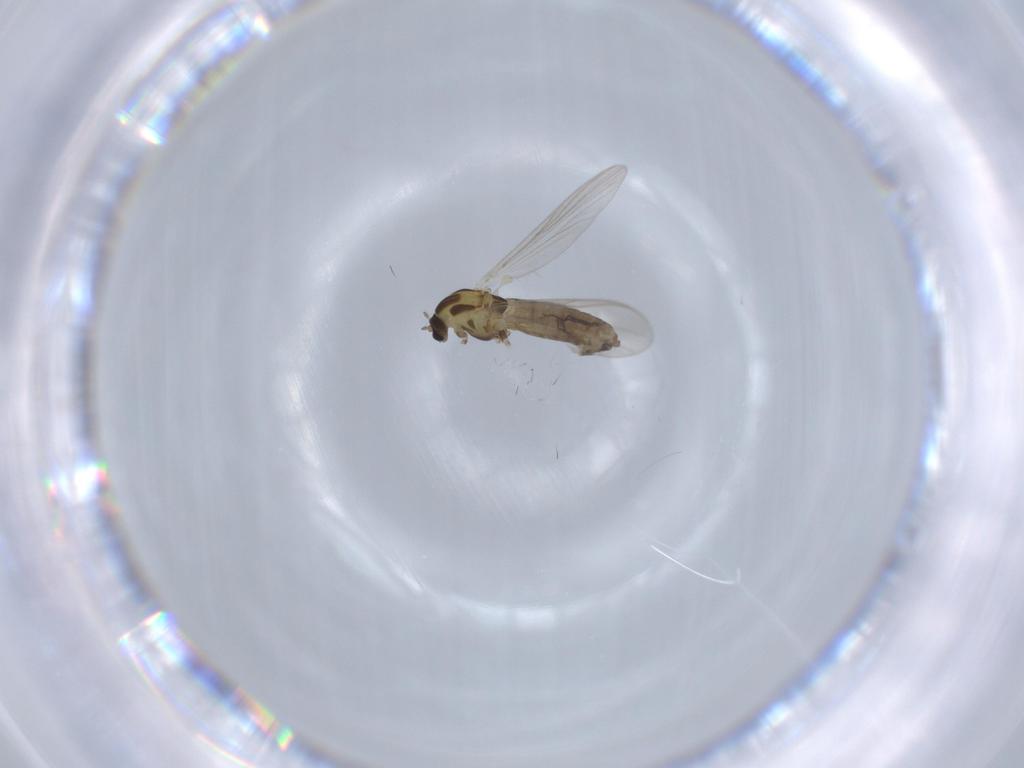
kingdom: Animalia
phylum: Arthropoda
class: Insecta
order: Diptera
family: Chironomidae
